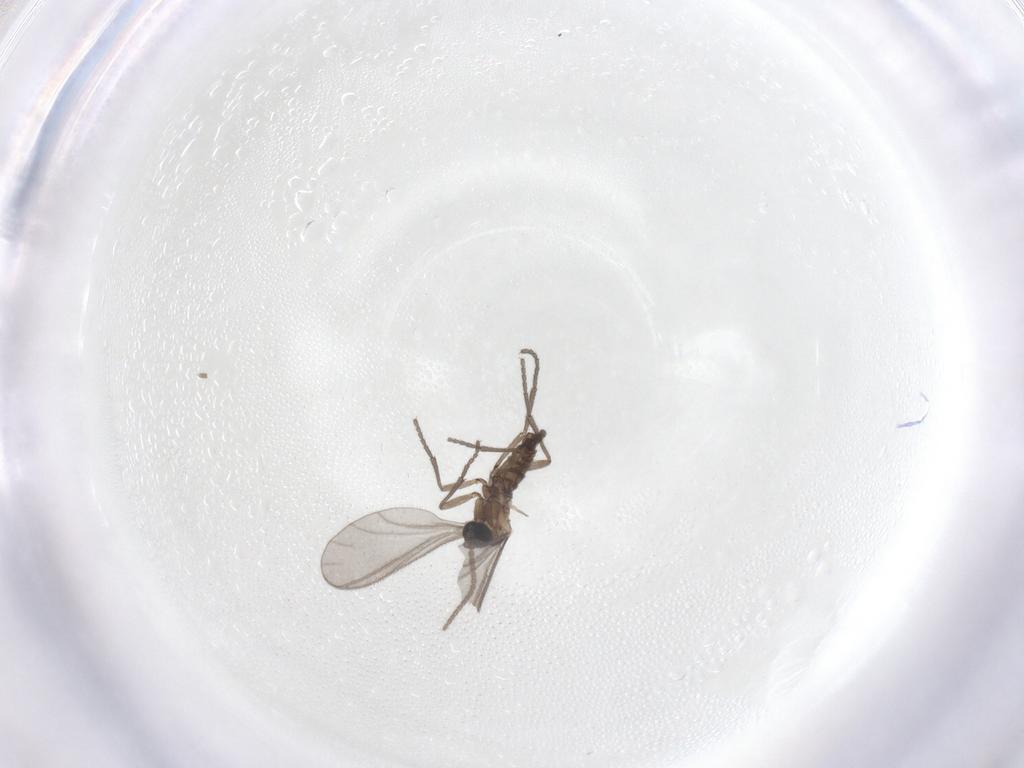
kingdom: Animalia
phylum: Arthropoda
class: Insecta
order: Diptera
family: Sciaridae
